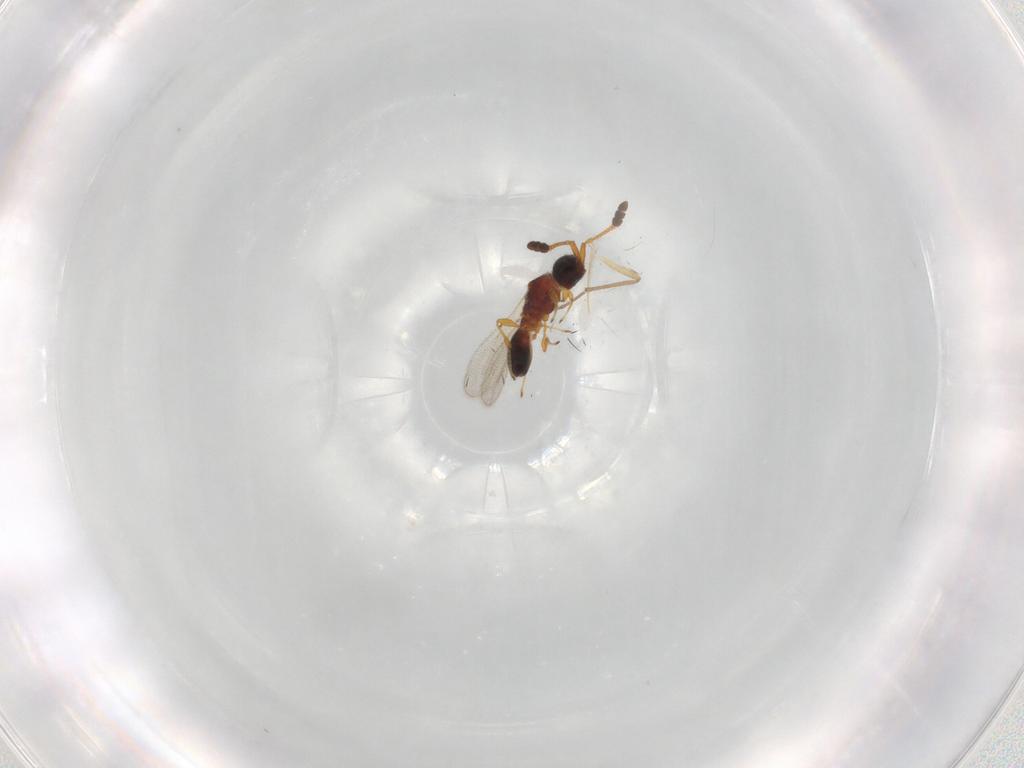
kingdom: Animalia
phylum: Arthropoda
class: Insecta
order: Hymenoptera
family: Diapriidae
